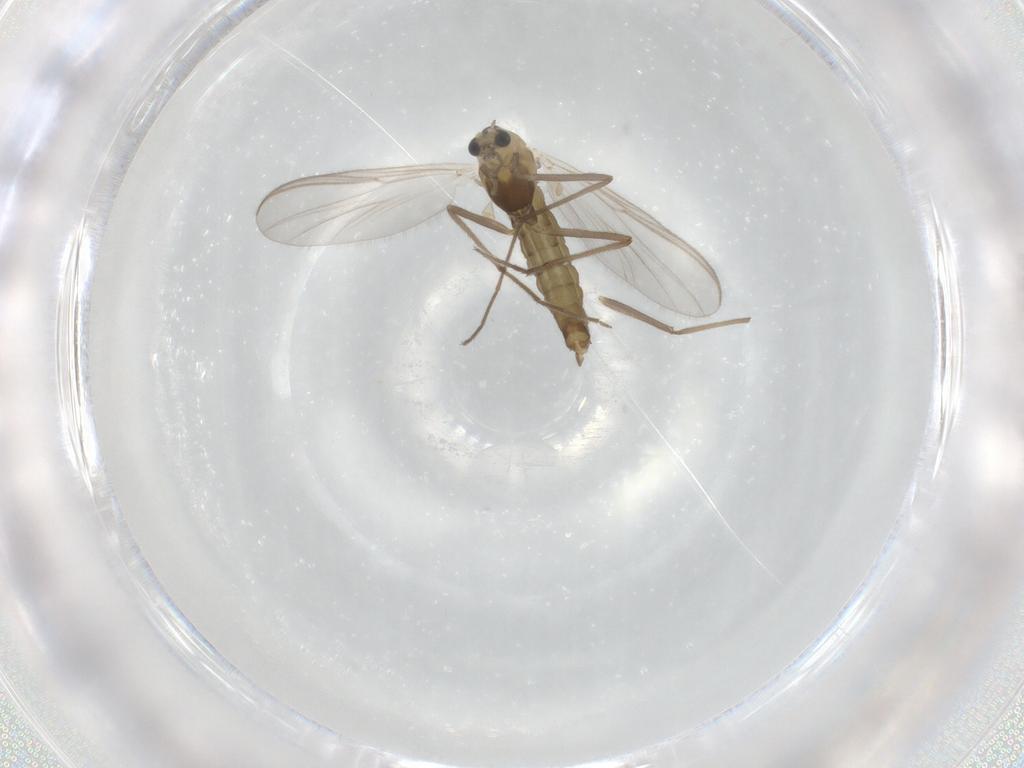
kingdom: Animalia
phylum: Arthropoda
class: Insecta
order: Diptera
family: Chironomidae
